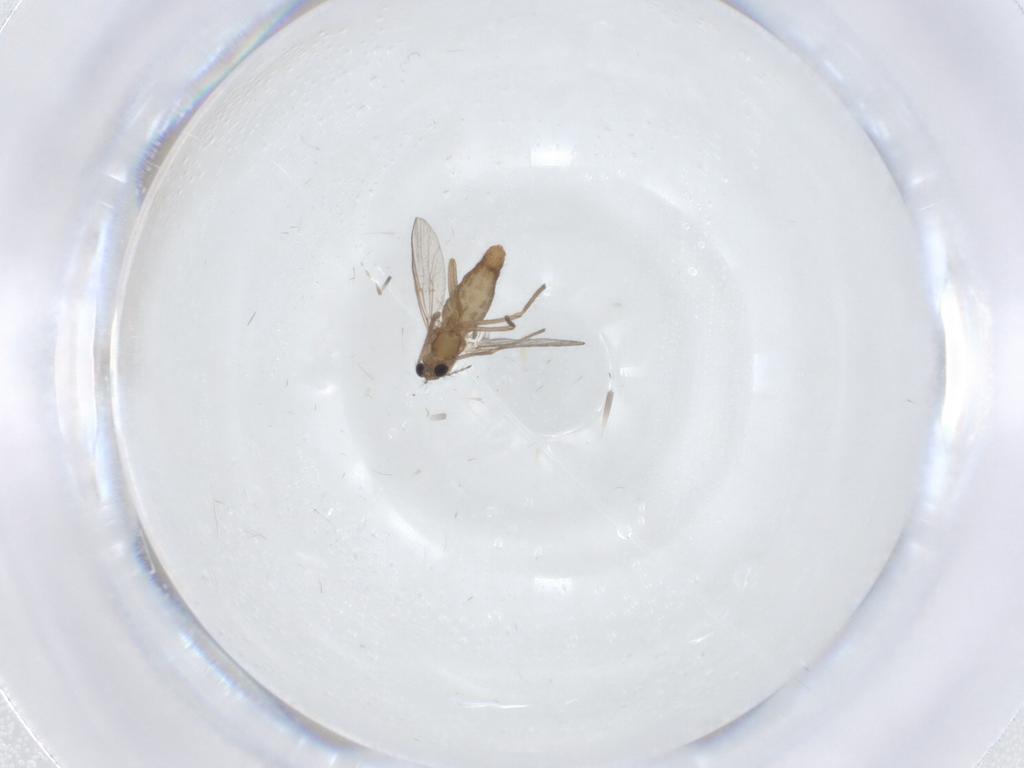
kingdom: Animalia
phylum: Arthropoda
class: Insecta
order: Diptera
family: Chironomidae
